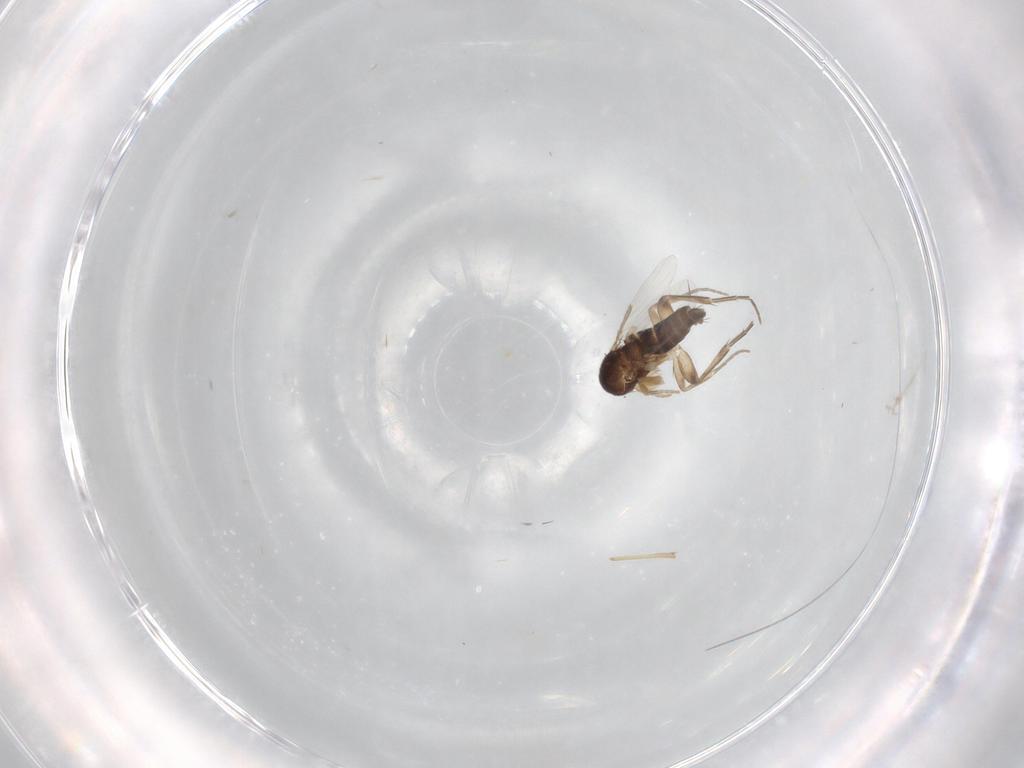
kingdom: Animalia
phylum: Arthropoda
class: Insecta
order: Diptera
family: Phoridae
